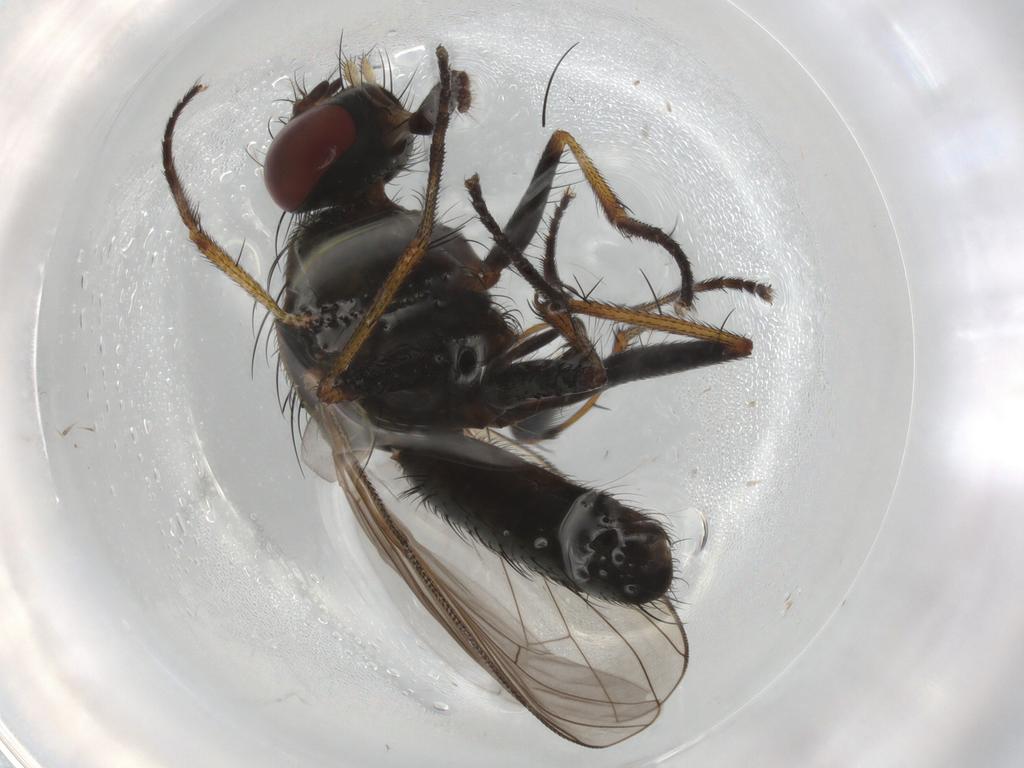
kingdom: Animalia
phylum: Arthropoda
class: Insecta
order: Diptera
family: Muscidae
